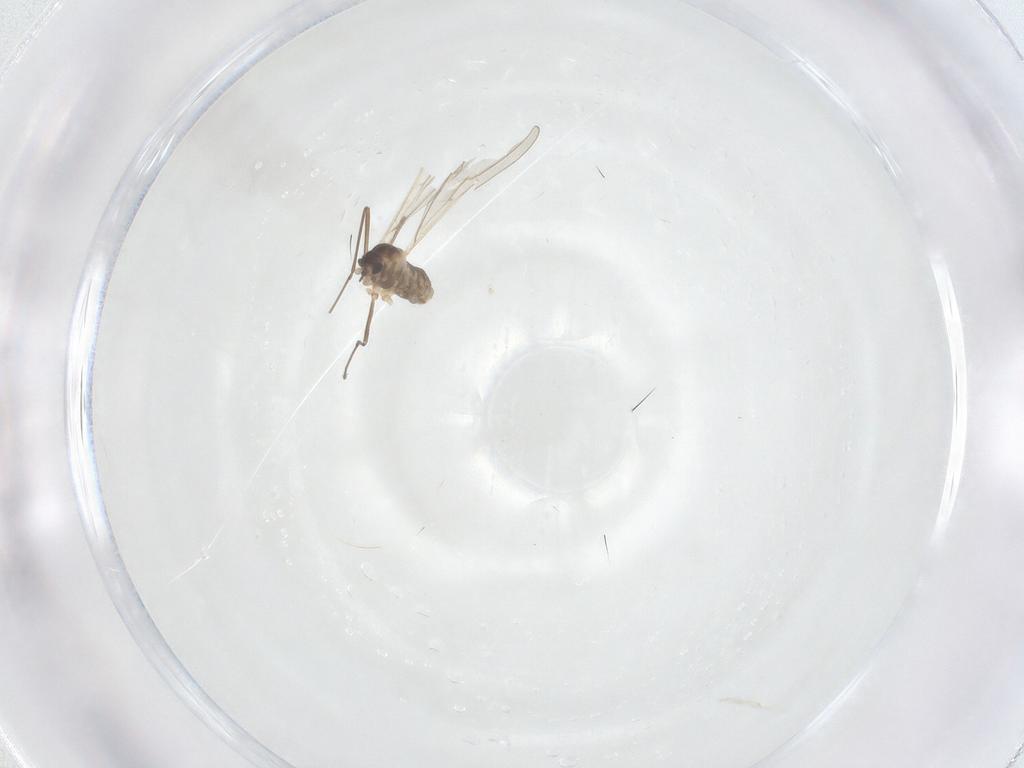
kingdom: Animalia
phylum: Arthropoda
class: Insecta
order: Diptera
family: Cecidomyiidae
